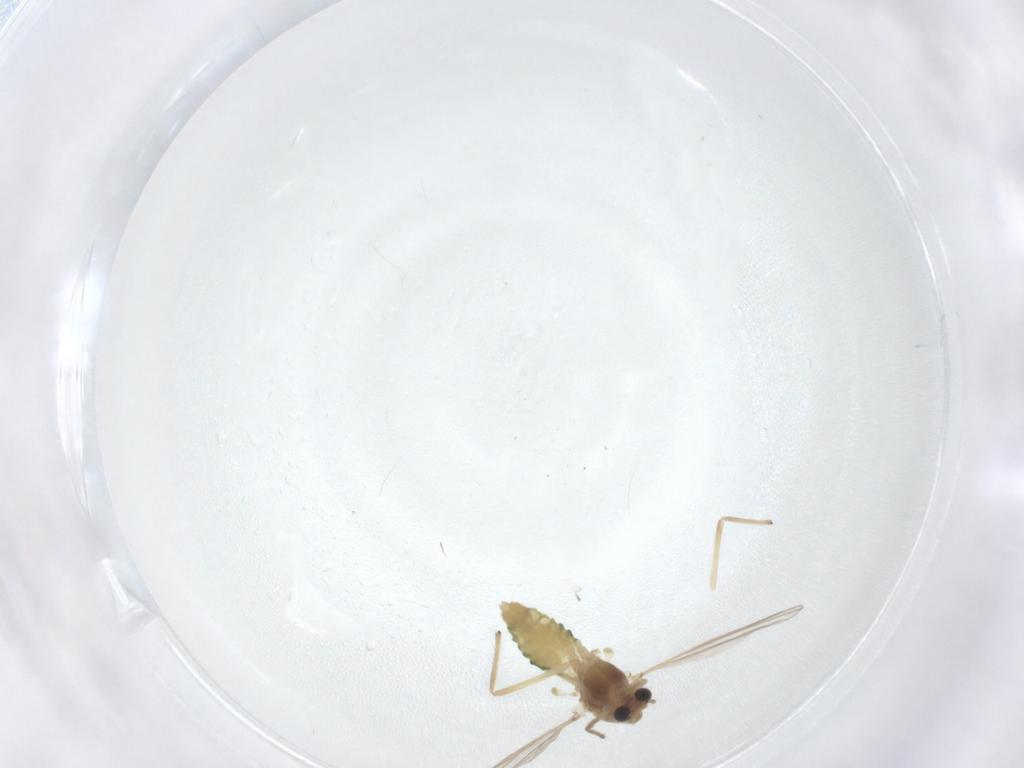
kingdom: Animalia
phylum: Arthropoda
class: Insecta
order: Diptera
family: Chironomidae
